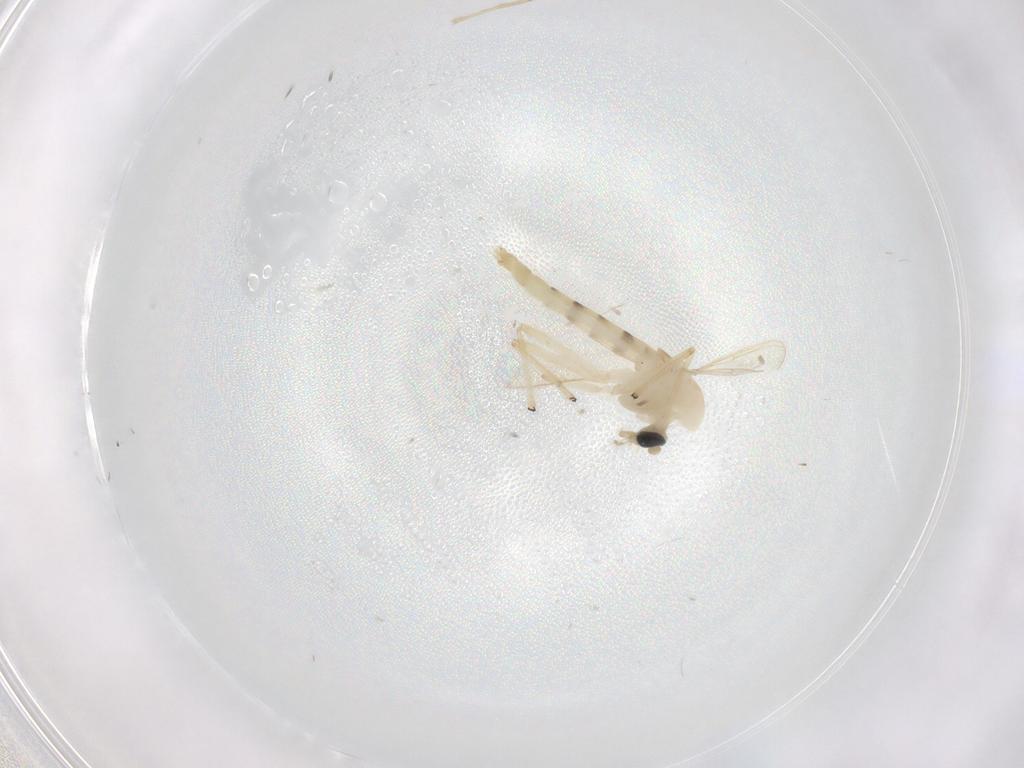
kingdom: Animalia
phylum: Arthropoda
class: Insecta
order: Diptera
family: Chironomidae
